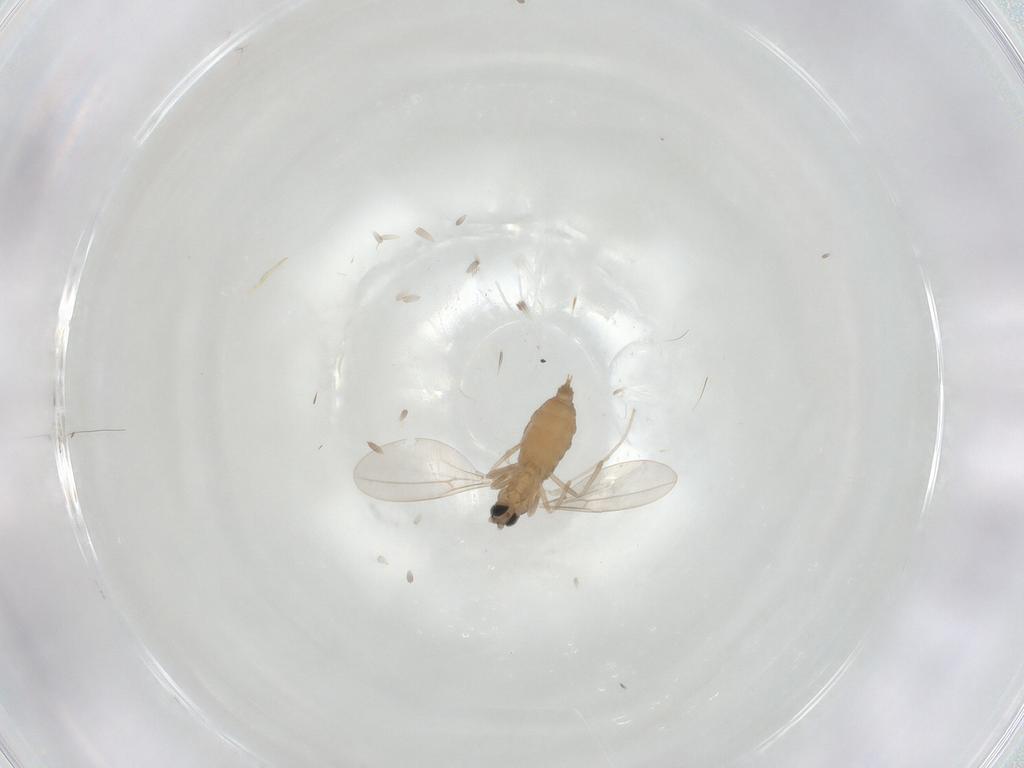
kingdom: Animalia
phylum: Arthropoda
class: Insecta
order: Diptera
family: Cecidomyiidae
